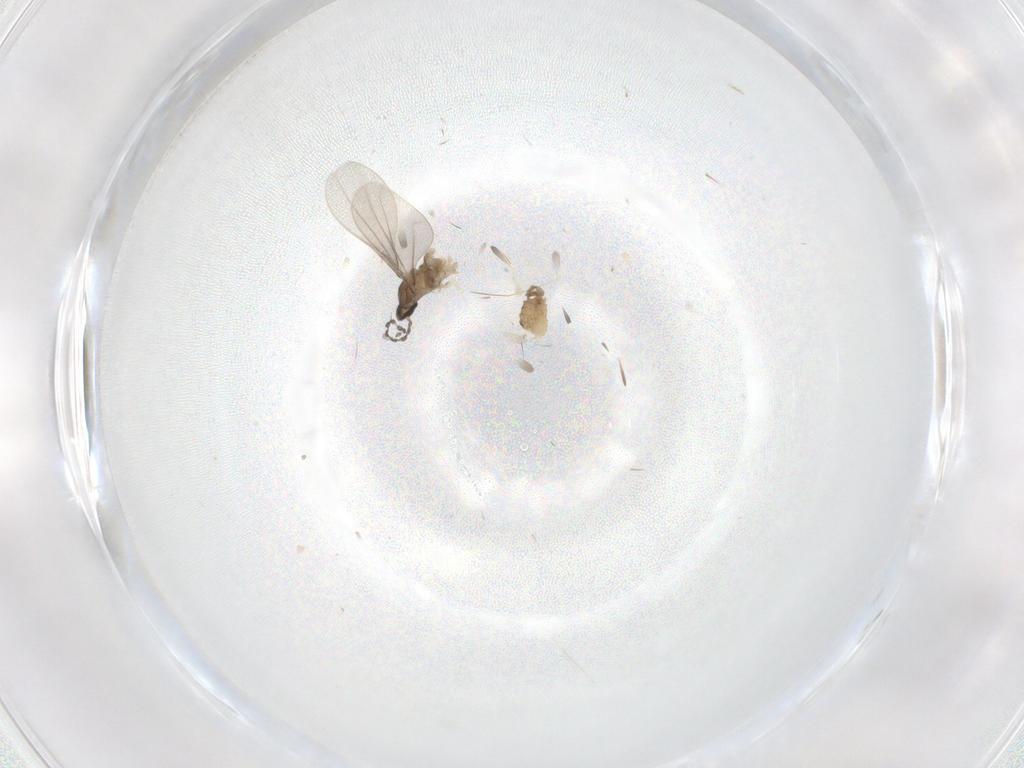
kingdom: Animalia
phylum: Arthropoda
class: Insecta
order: Diptera
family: Cecidomyiidae
